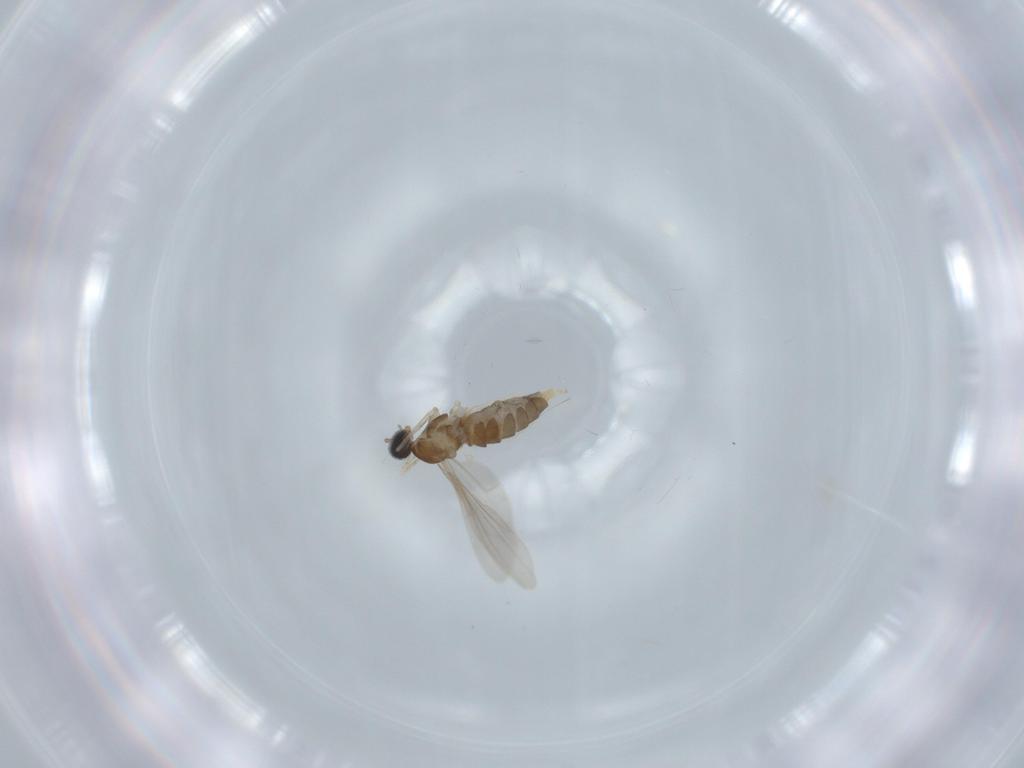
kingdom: Animalia
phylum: Arthropoda
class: Insecta
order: Diptera
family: Cecidomyiidae
